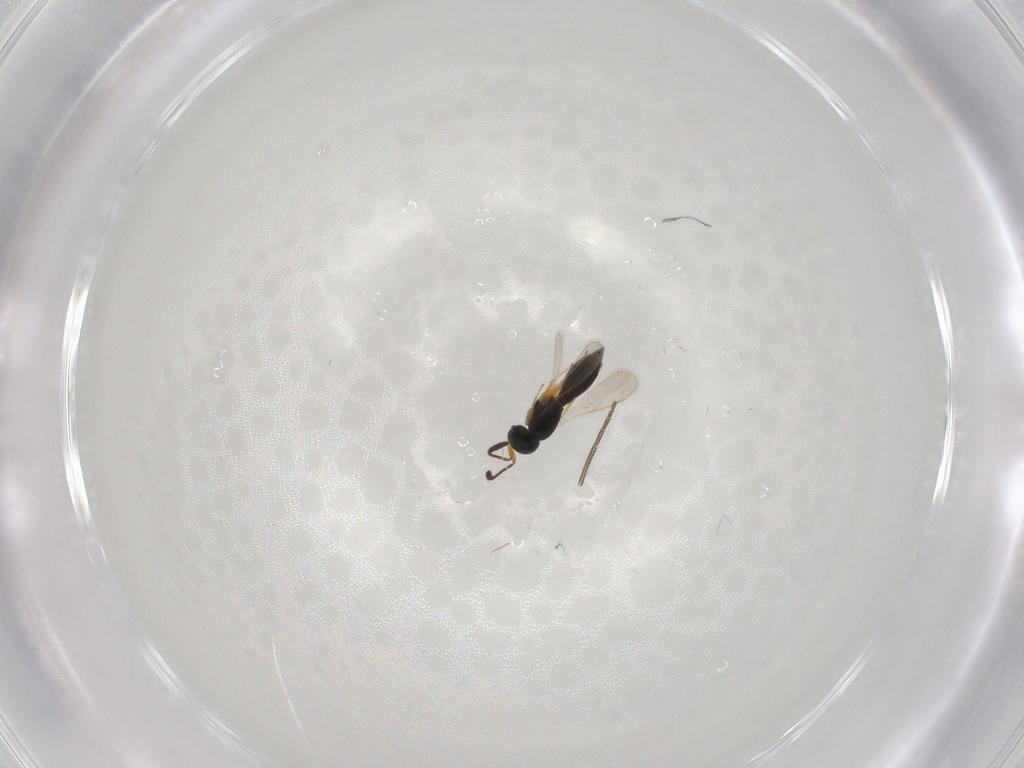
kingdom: Animalia
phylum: Arthropoda
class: Insecta
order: Hymenoptera
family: Scelionidae
